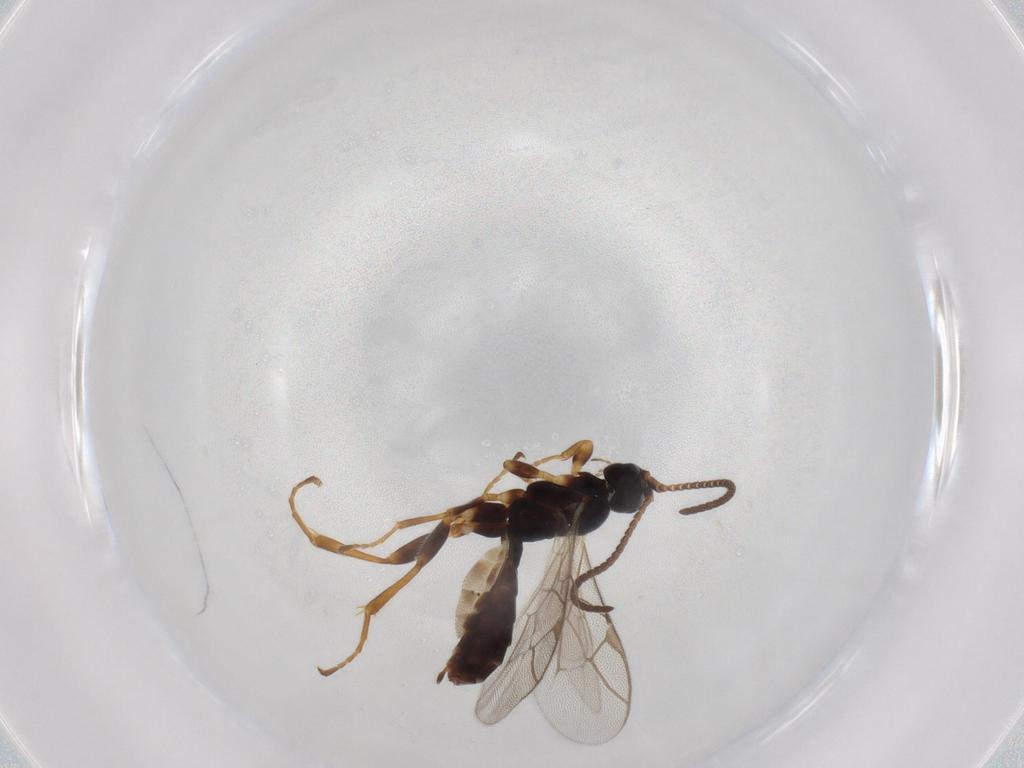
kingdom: Animalia
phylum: Arthropoda
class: Insecta
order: Hymenoptera
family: Ichneumonidae
